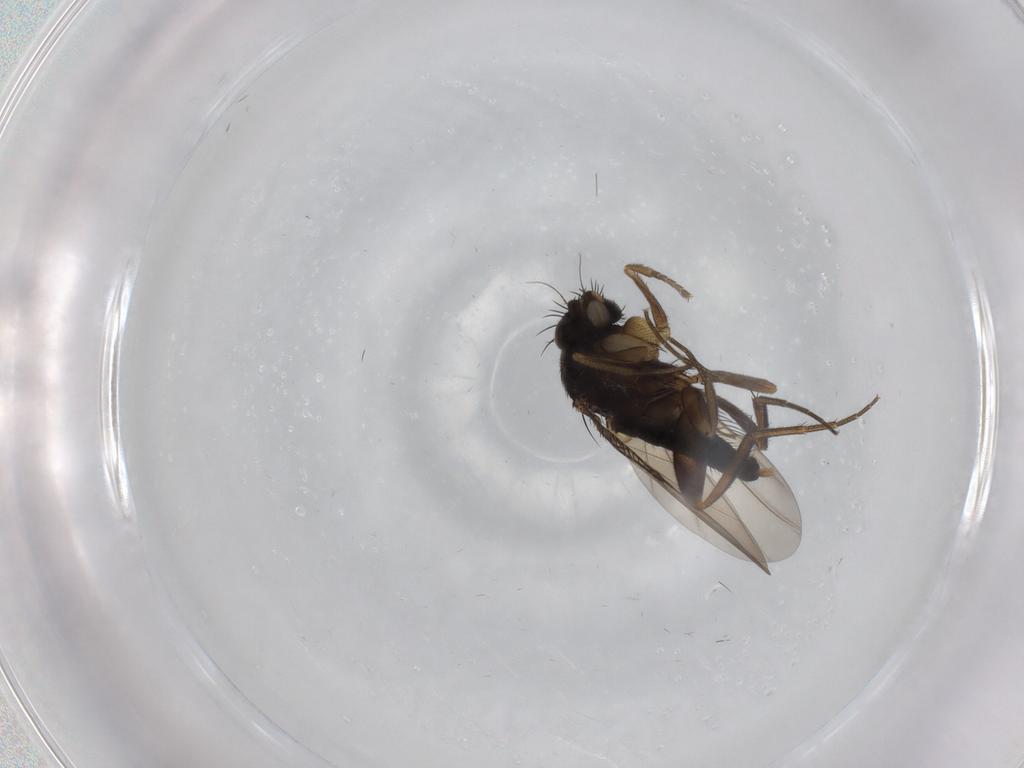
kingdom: Animalia
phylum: Arthropoda
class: Insecta
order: Diptera
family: Phoridae
